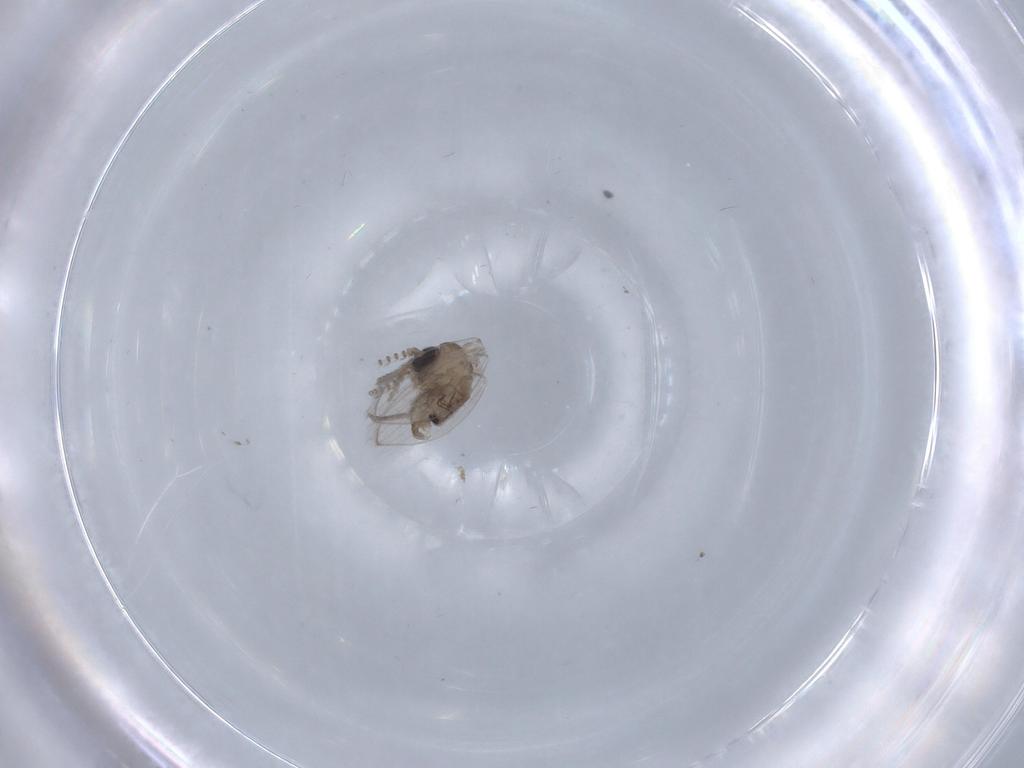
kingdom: Animalia
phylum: Arthropoda
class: Insecta
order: Diptera
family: Psychodidae
